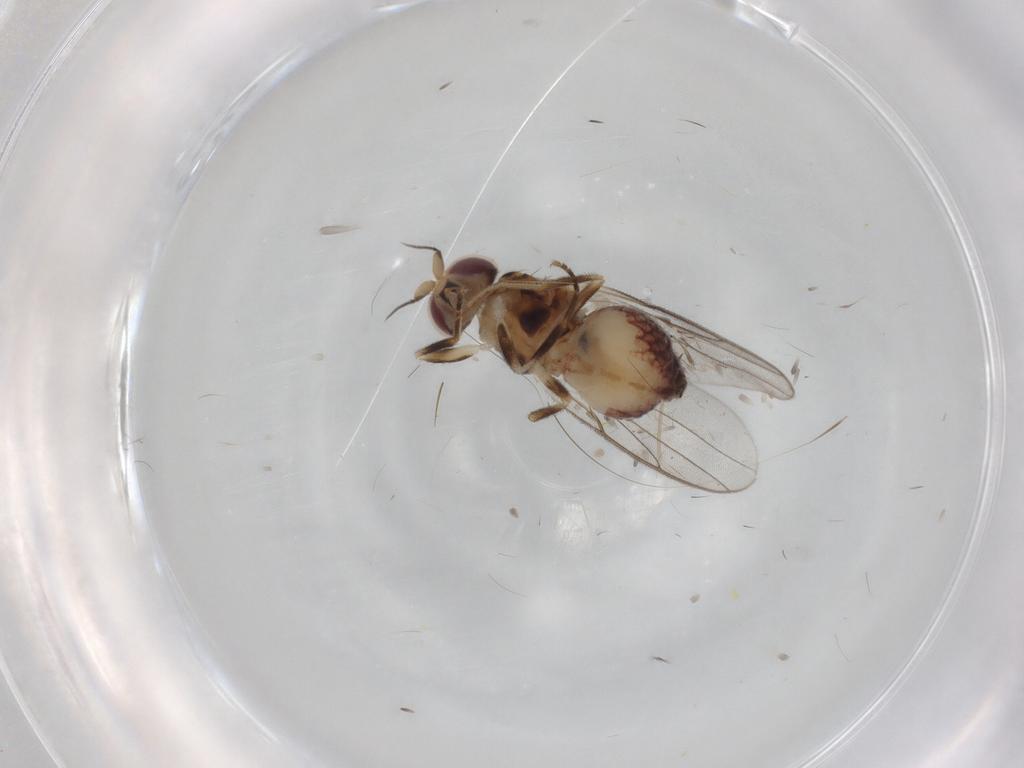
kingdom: Animalia
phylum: Arthropoda
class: Insecta
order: Diptera
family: Chloropidae
